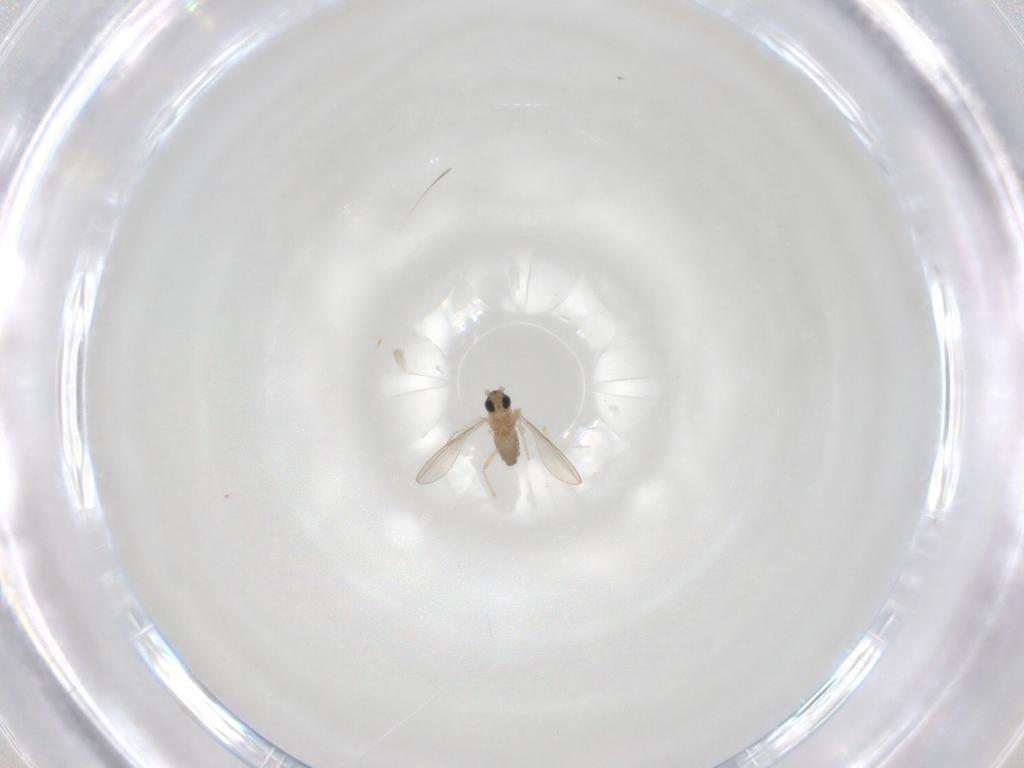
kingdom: Animalia
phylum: Arthropoda
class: Insecta
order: Diptera
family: Cecidomyiidae
